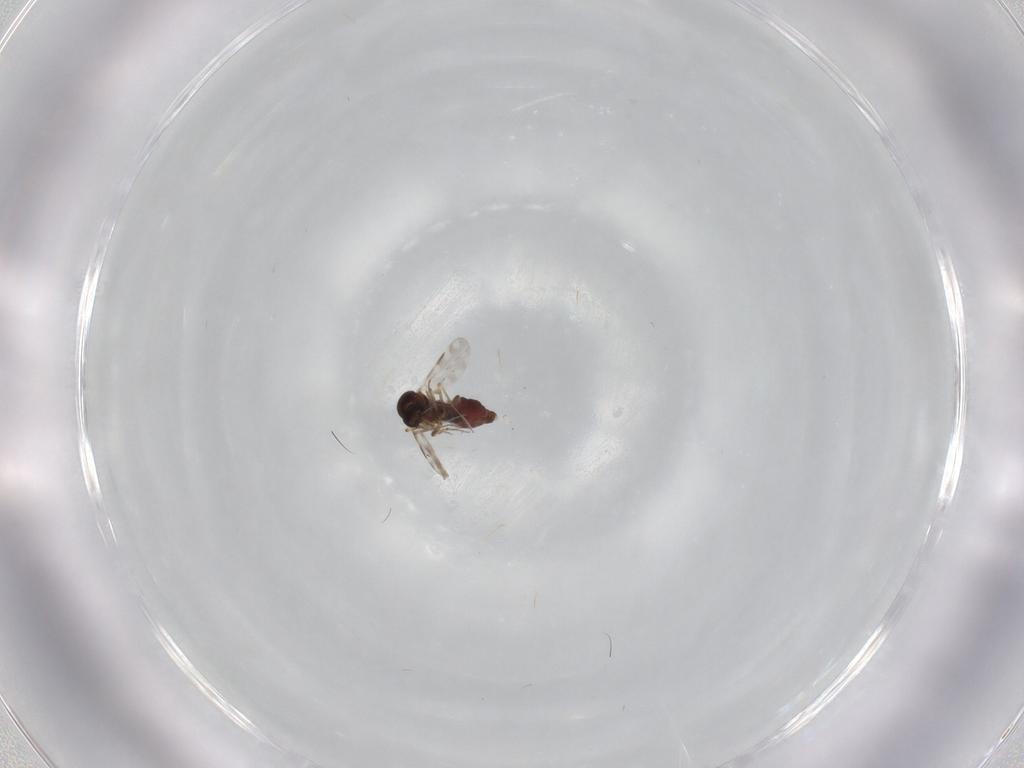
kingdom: Animalia
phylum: Arthropoda
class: Insecta
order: Diptera
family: Ceratopogonidae
